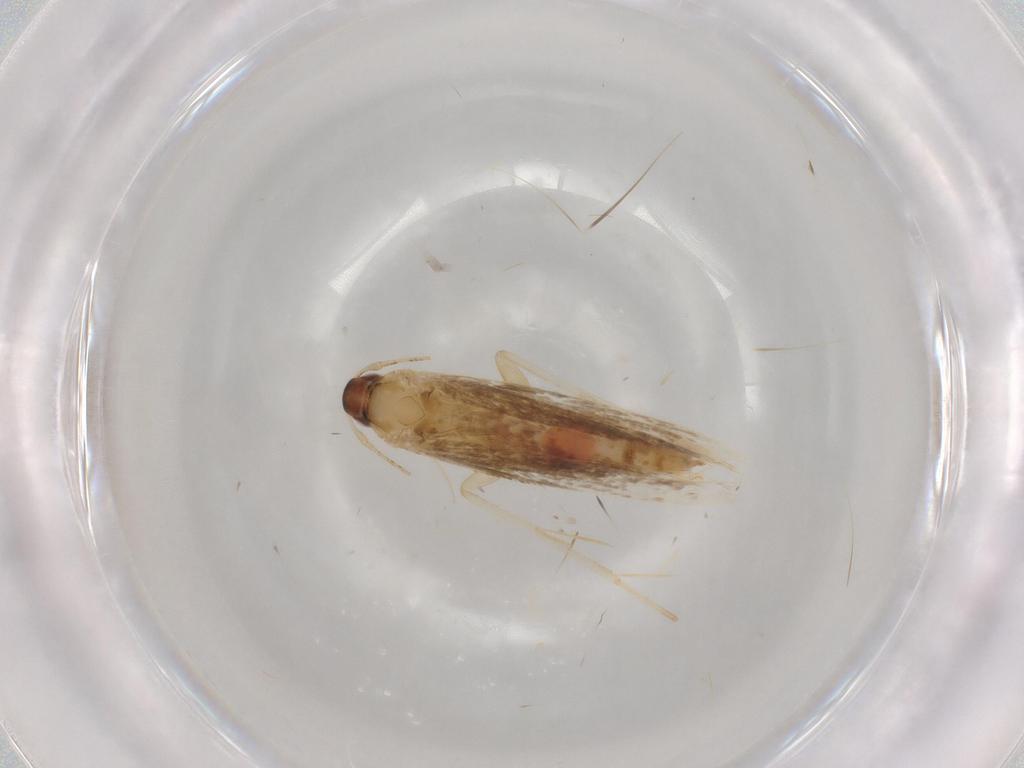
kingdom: Animalia
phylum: Arthropoda
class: Insecta
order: Lepidoptera
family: Cosmopterigidae
